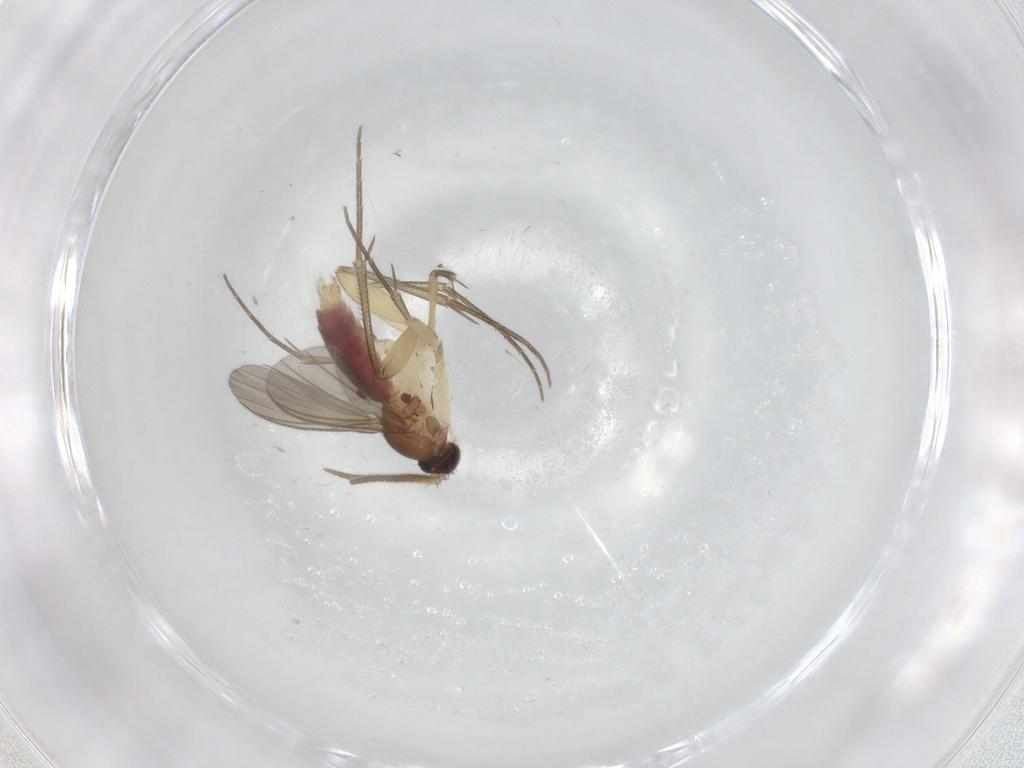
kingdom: Animalia
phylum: Arthropoda
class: Insecta
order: Diptera
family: Mycetophilidae
